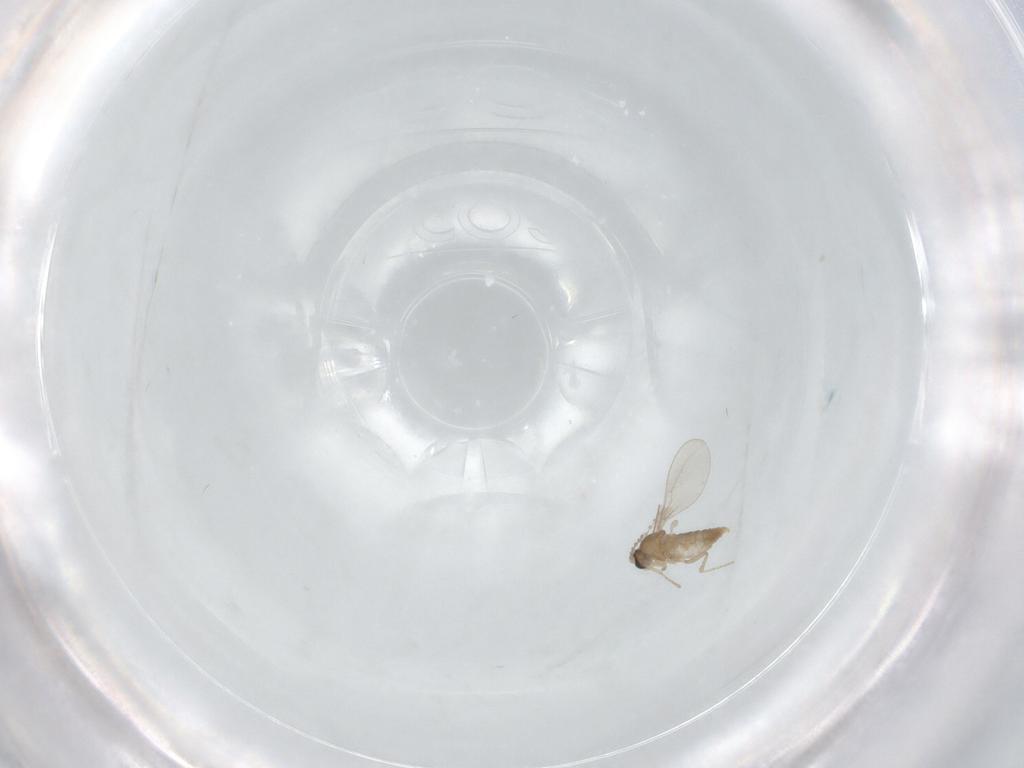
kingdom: Animalia
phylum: Arthropoda
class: Insecta
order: Diptera
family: Cecidomyiidae
